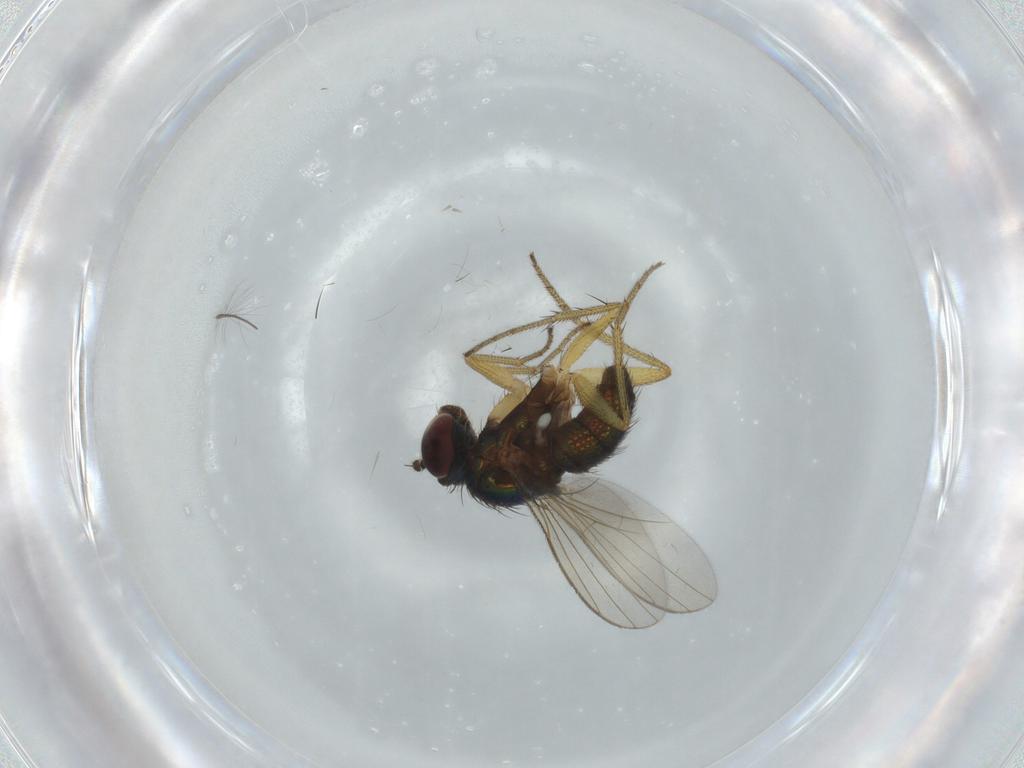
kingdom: Animalia
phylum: Arthropoda
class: Insecta
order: Diptera
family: Dolichopodidae
